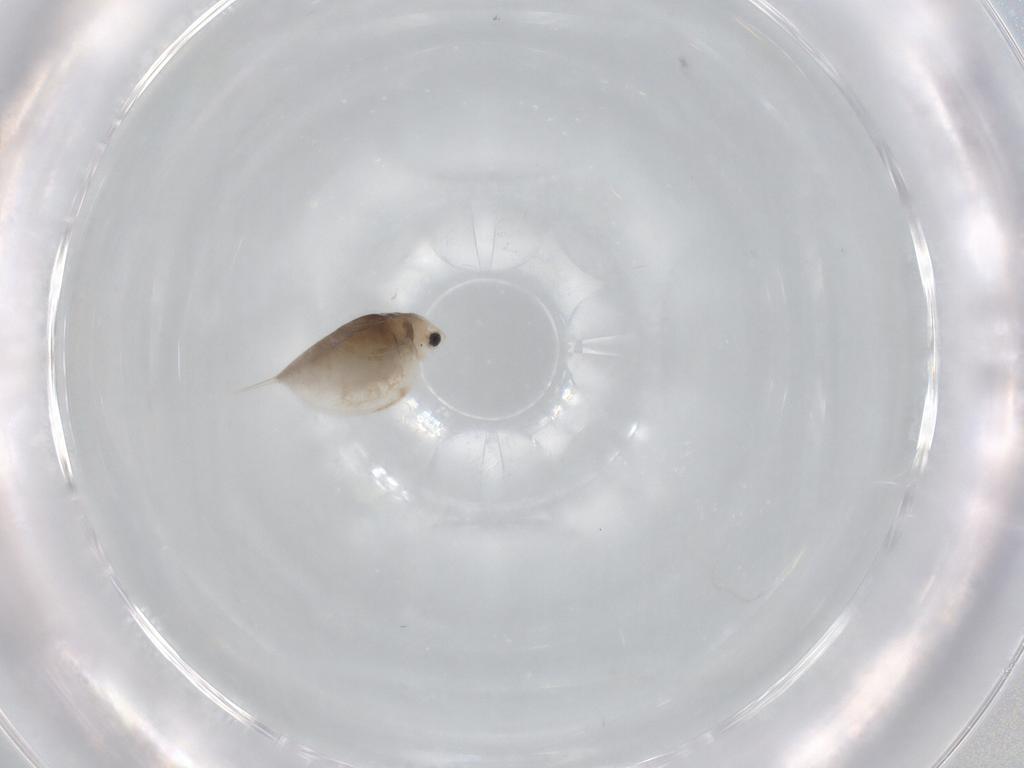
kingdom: Animalia
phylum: Arthropoda
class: Branchiopoda
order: Diplostraca
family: Daphniidae
